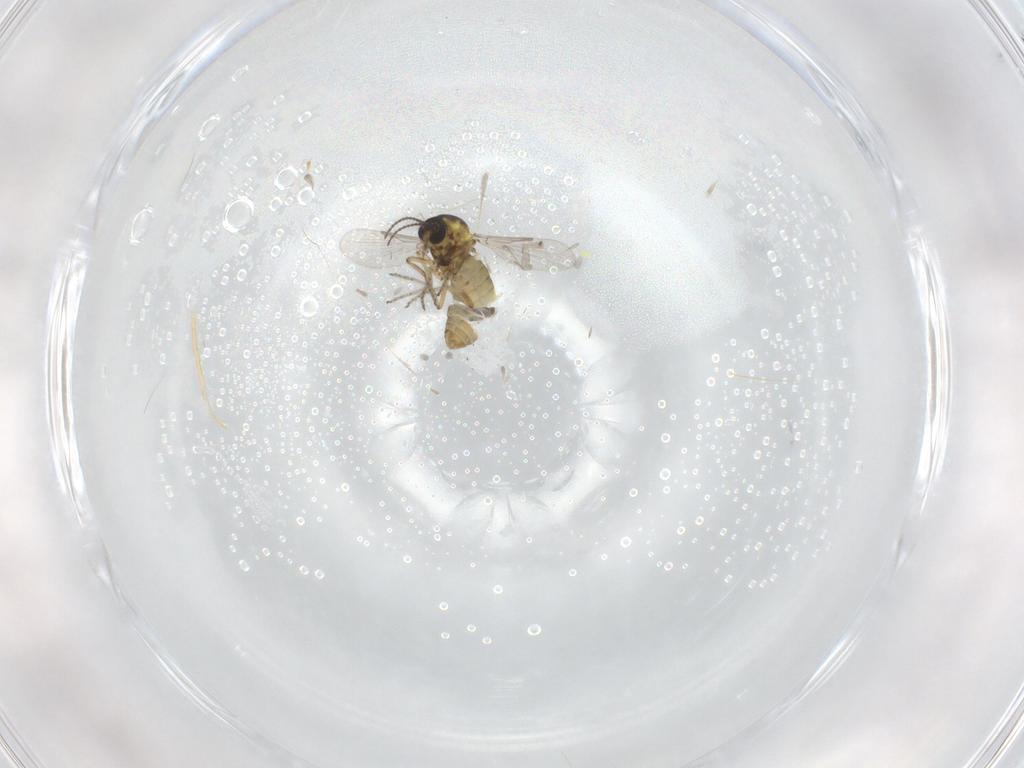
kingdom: Animalia
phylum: Arthropoda
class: Insecta
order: Diptera
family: Ceratopogonidae
